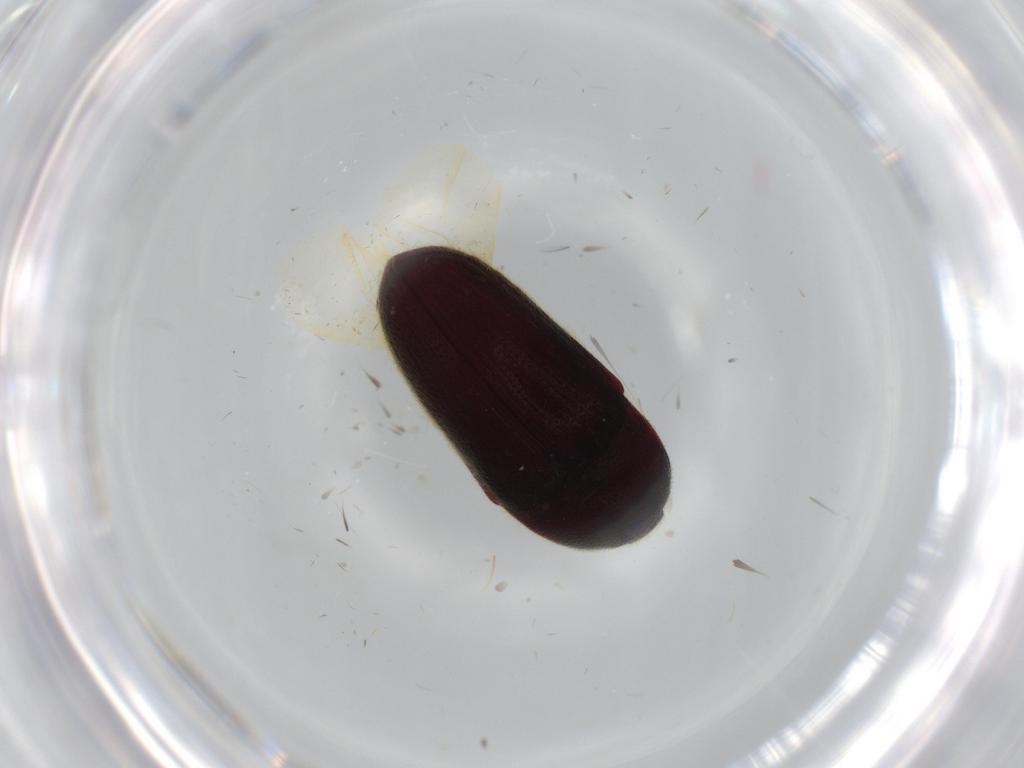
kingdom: Animalia
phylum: Arthropoda
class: Insecta
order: Coleoptera
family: Throscidae
